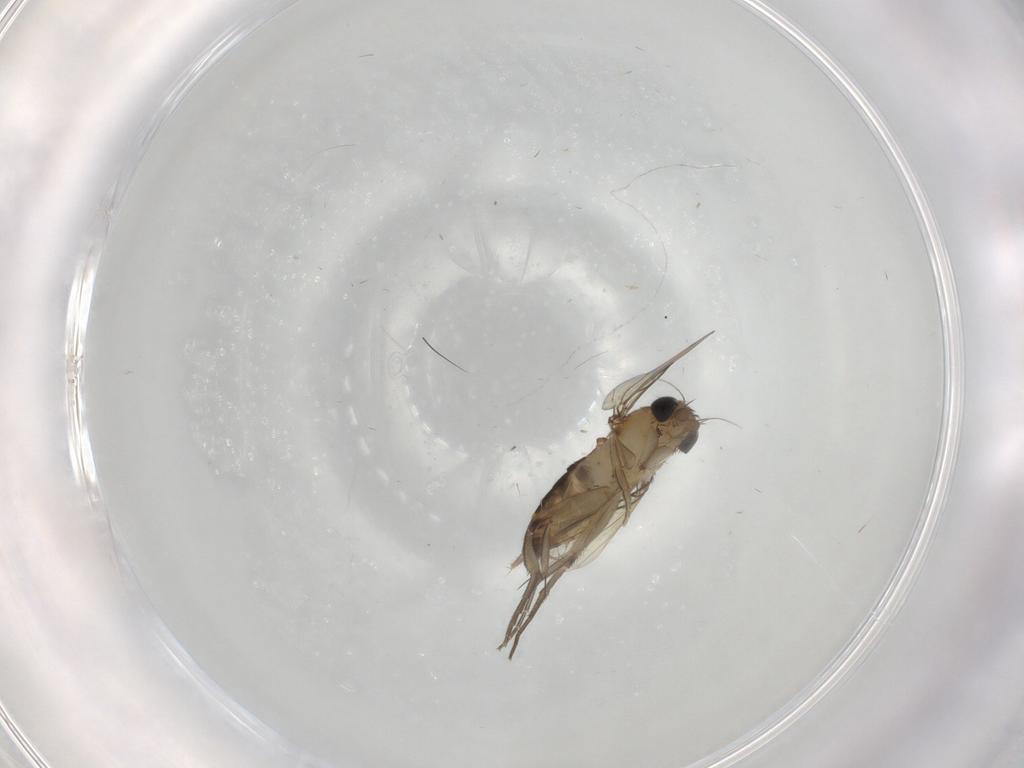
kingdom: Animalia
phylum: Arthropoda
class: Insecta
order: Diptera
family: Phoridae
